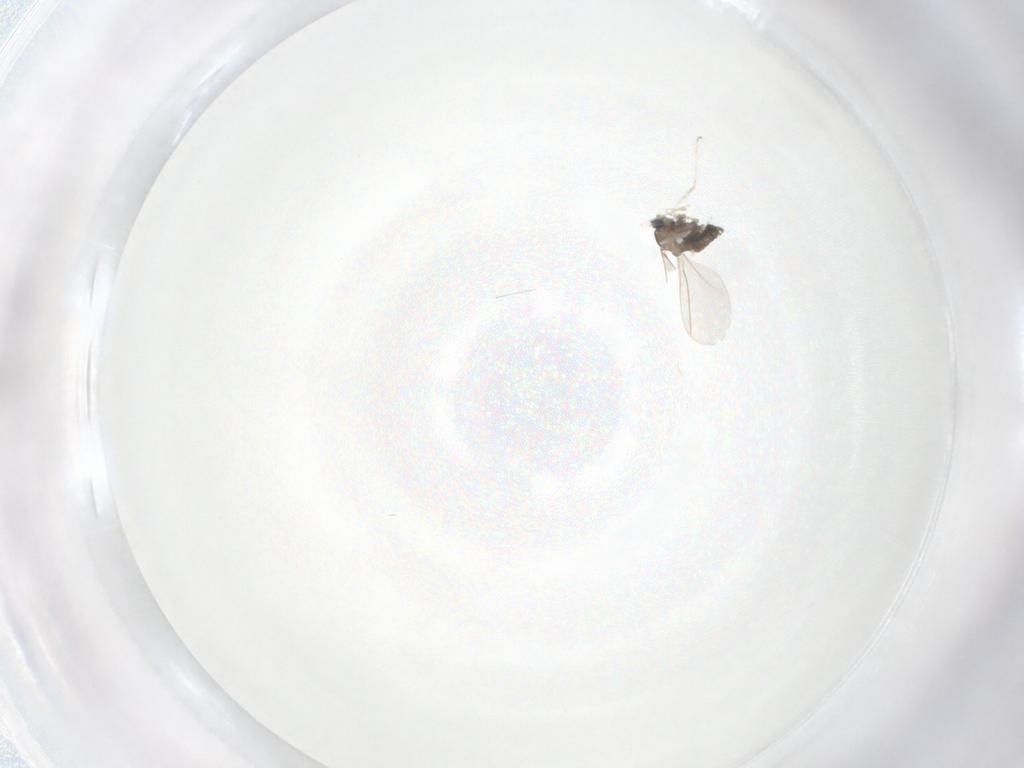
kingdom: Animalia
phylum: Arthropoda
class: Insecta
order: Diptera
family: Cecidomyiidae
